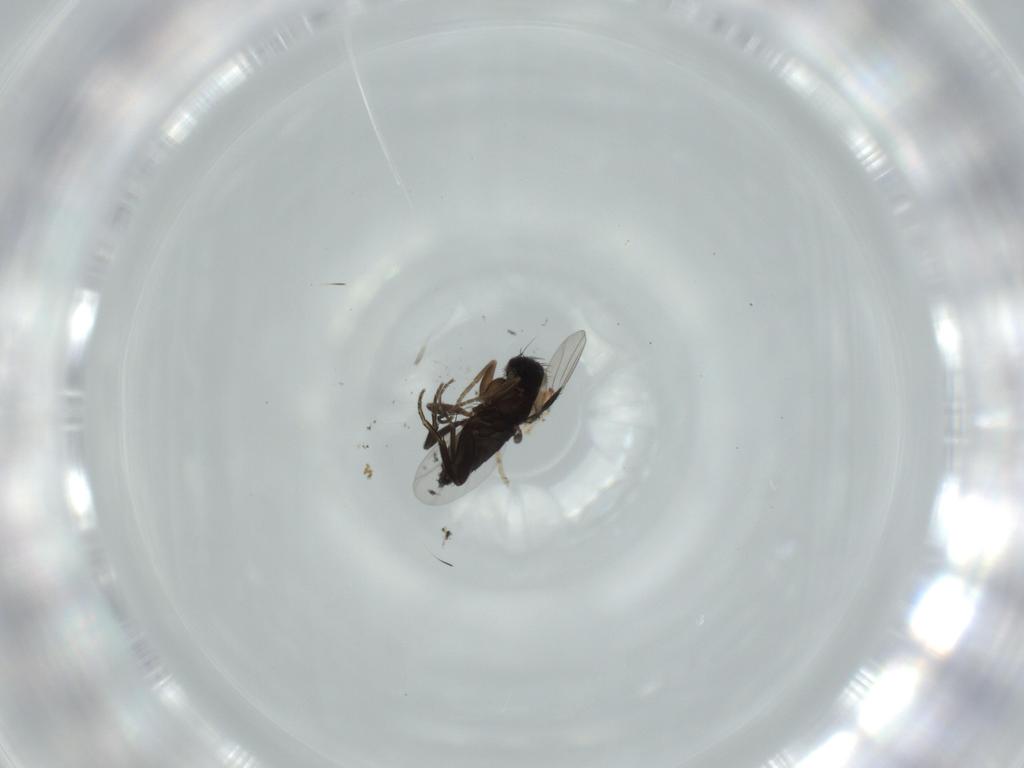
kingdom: Animalia
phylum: Arthropoda
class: Insecta
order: Diptera
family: Phoridae
